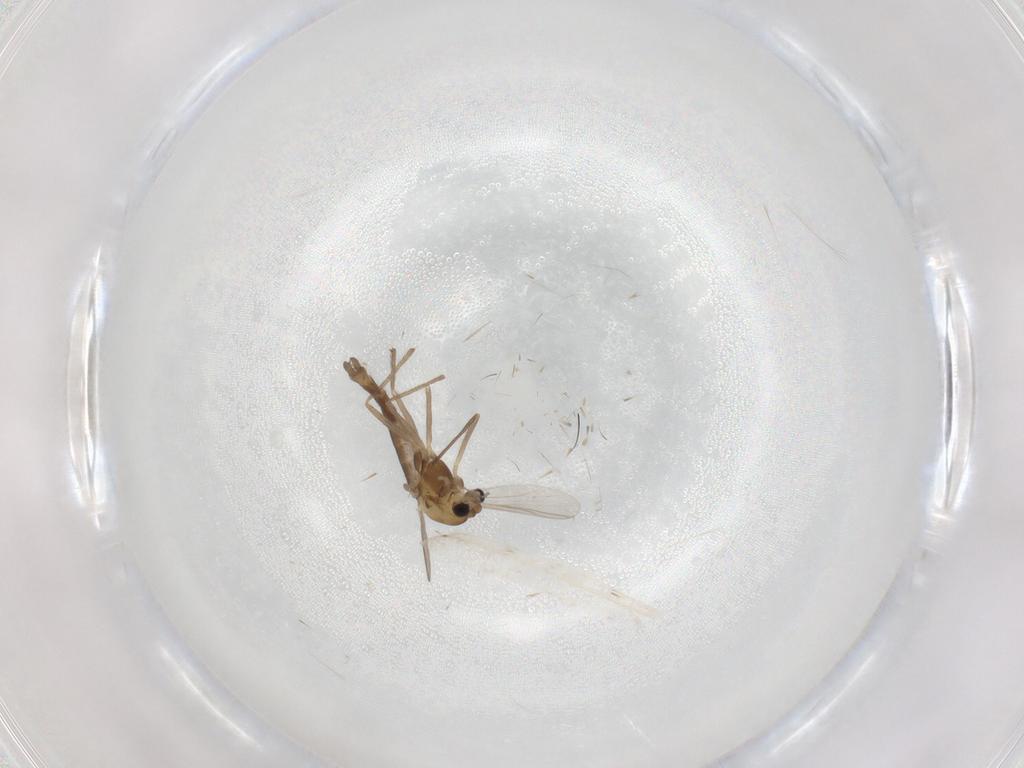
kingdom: Animalia
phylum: Arthropoda
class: Insecta
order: Diptera
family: Chironomidae
